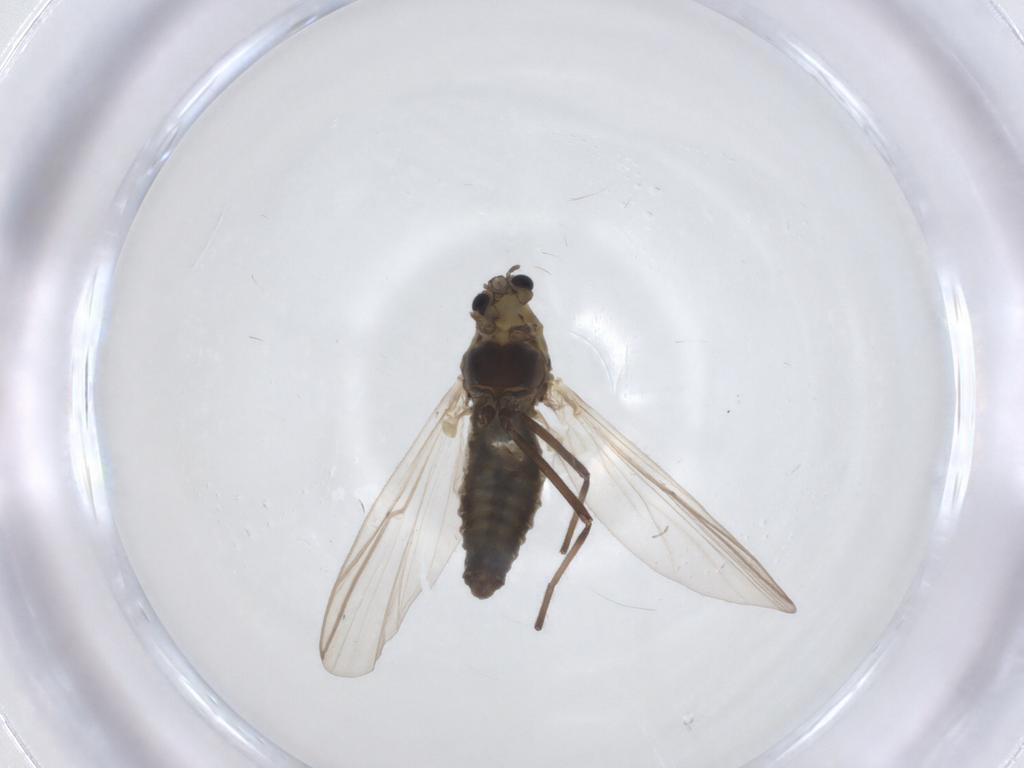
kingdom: Animalia
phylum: Arthropoda
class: Insecta
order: Diptera
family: Chironomidae
